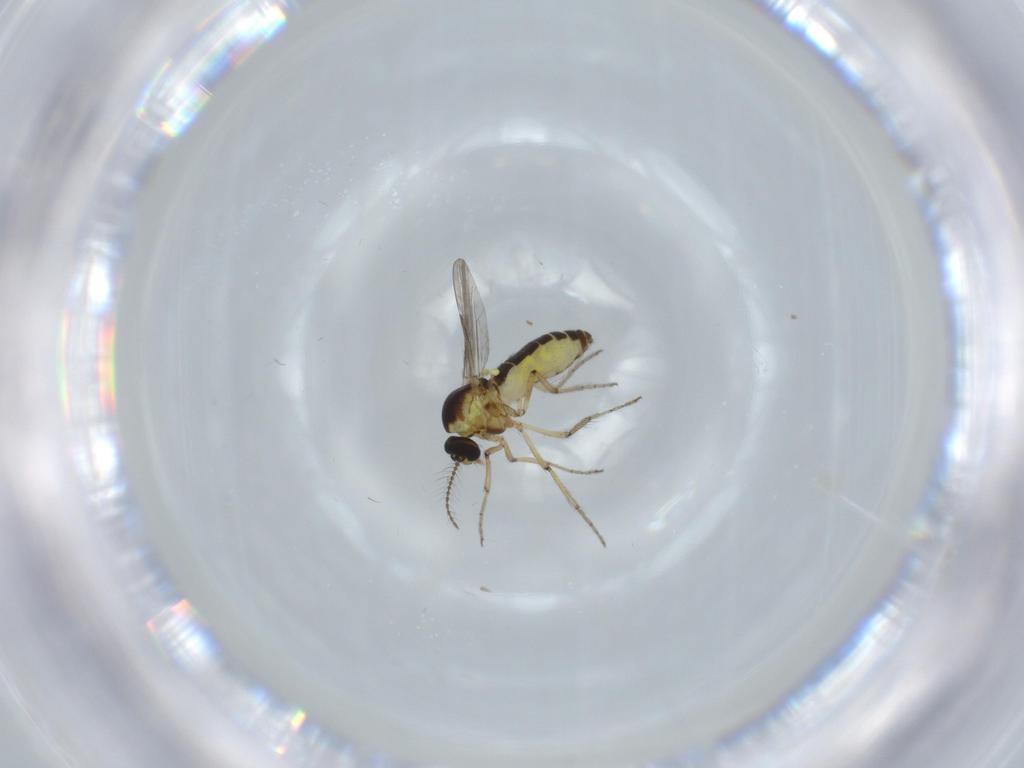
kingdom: Animalia
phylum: Arthropoda
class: Insecta
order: Diptera
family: Ceratopogonidae
